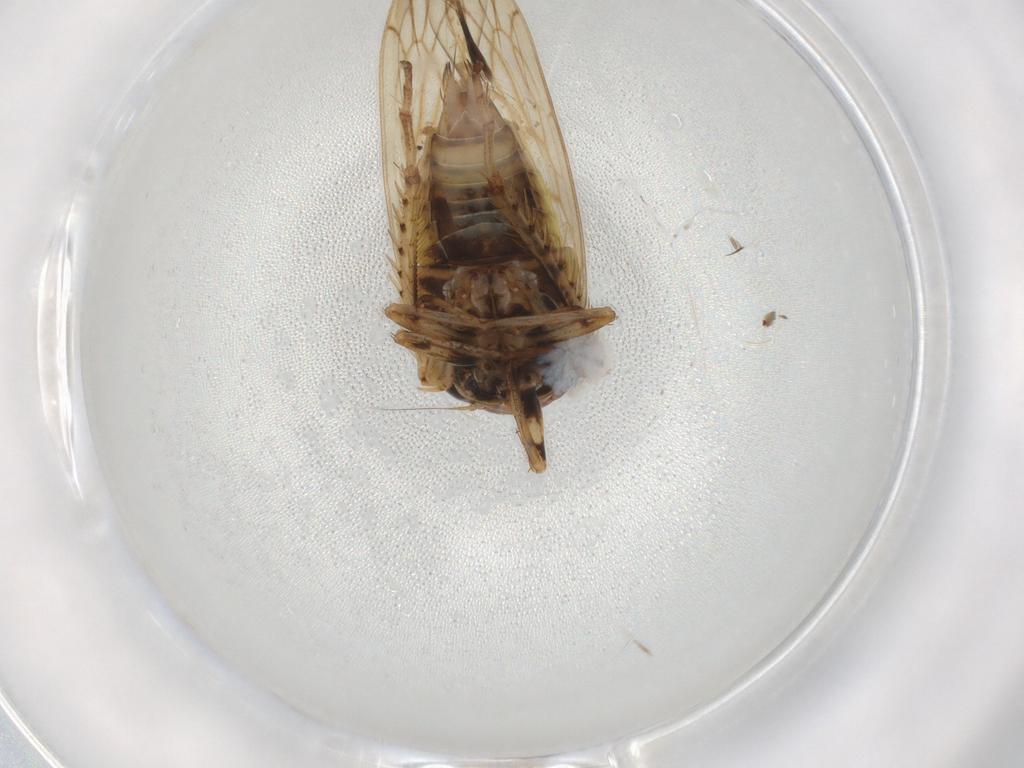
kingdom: Animalia
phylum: Arthropoda
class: Insecta
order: Hemiptera
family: Cicadellidae
